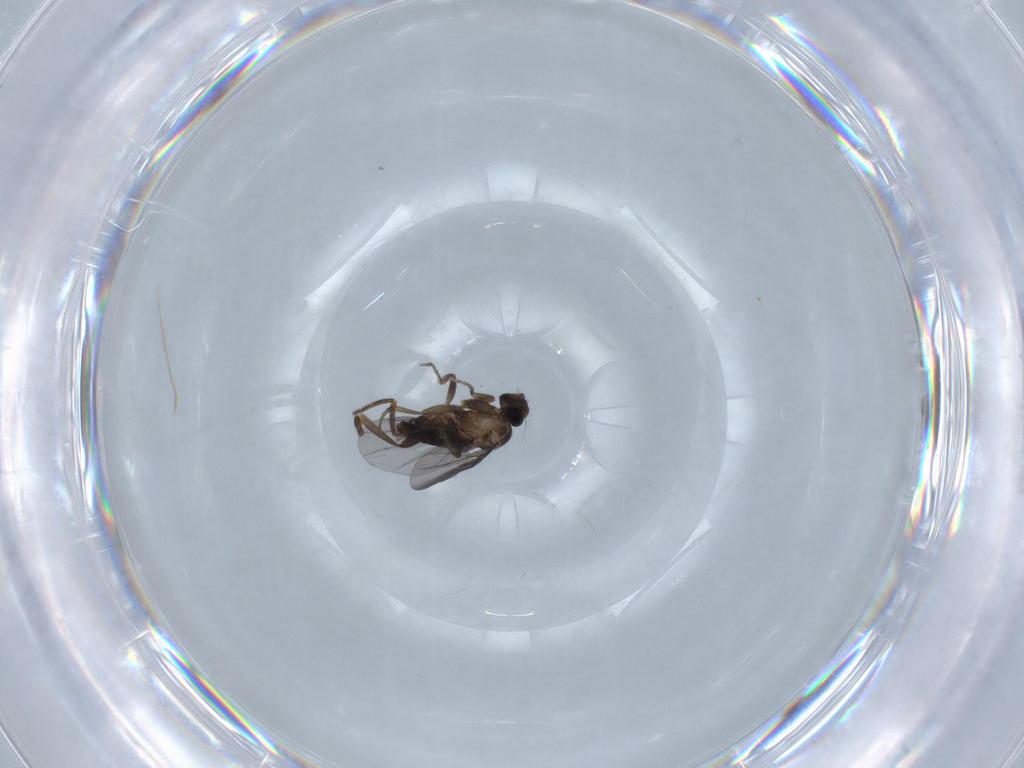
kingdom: Animalia
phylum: Arthropoda
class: Insecta
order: Diptera
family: Phoridae
